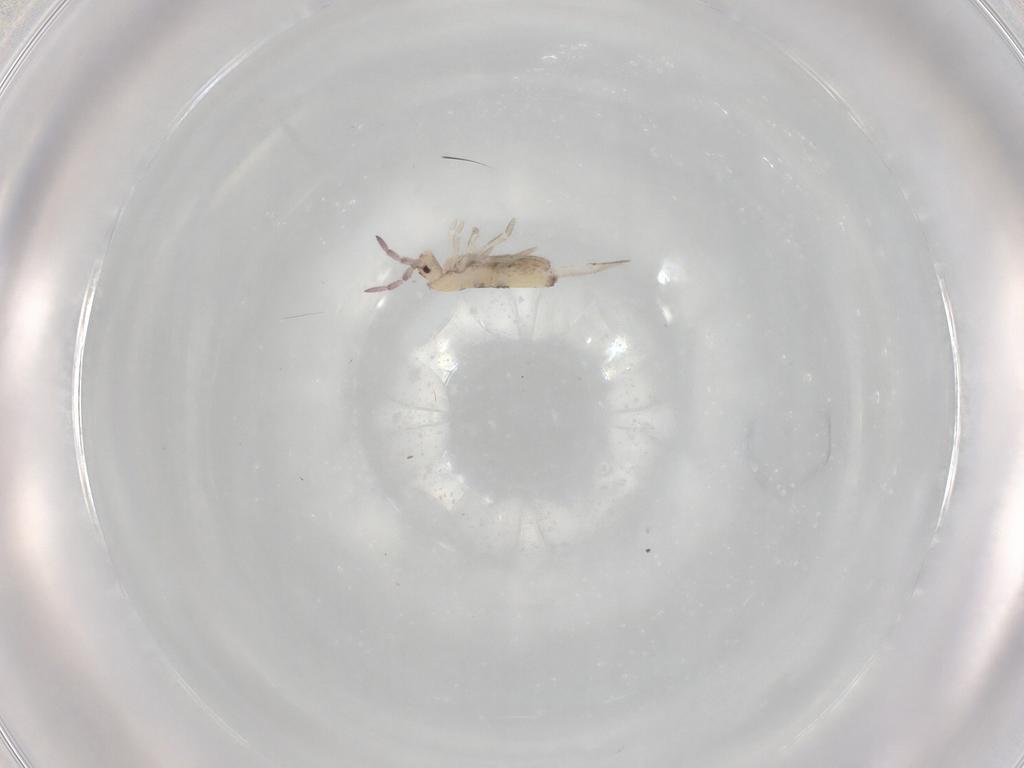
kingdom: Animalia
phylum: Arthropoda
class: Collembola
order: Entomobryomorpha
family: Entomobryidae
